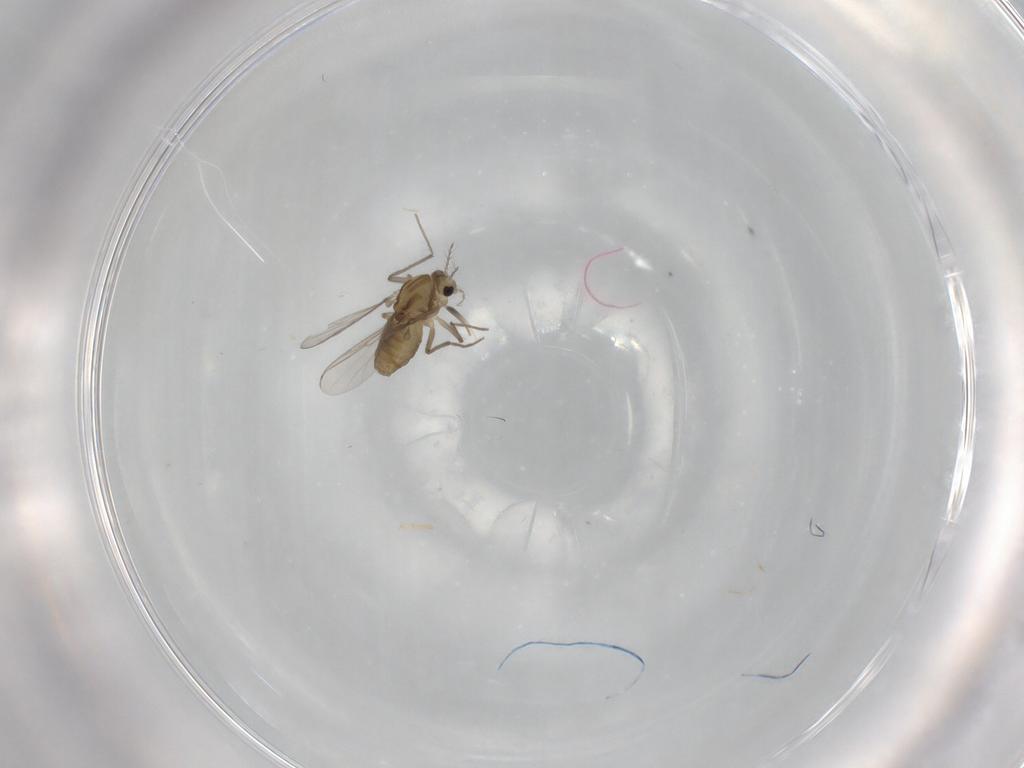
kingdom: Animalia
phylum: Arthropoda
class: Insecta
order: Diptera
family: Chironomidae
